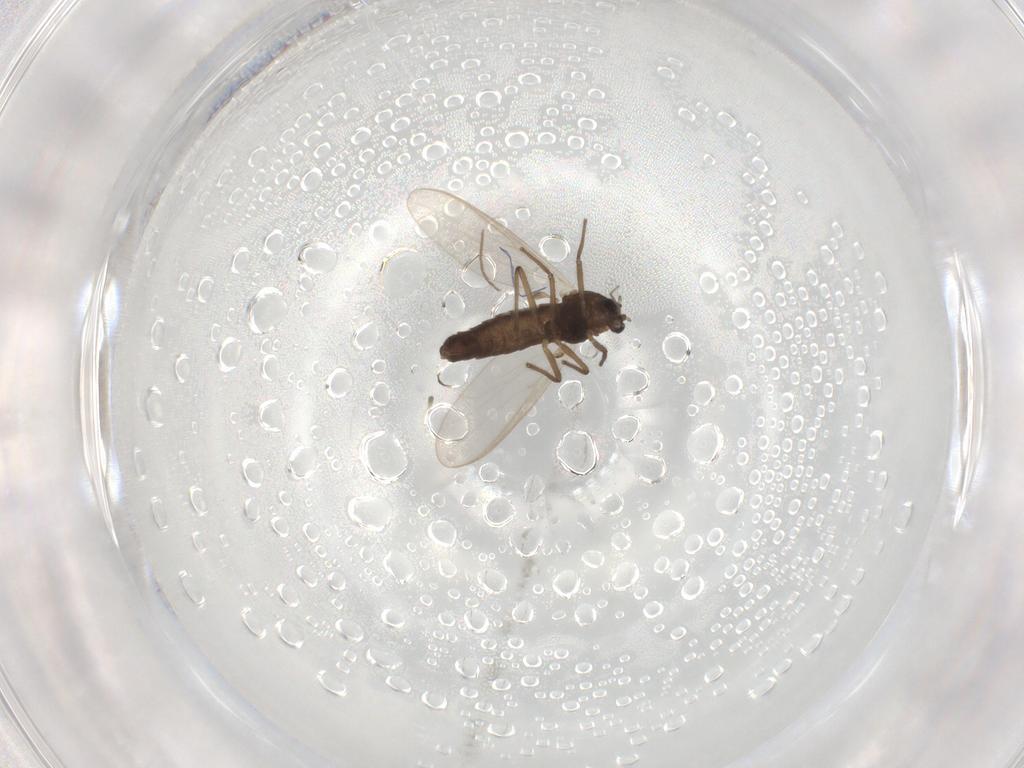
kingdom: Animalia
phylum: Arthropoda
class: Insecta
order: Diptera
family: Chironomidae
